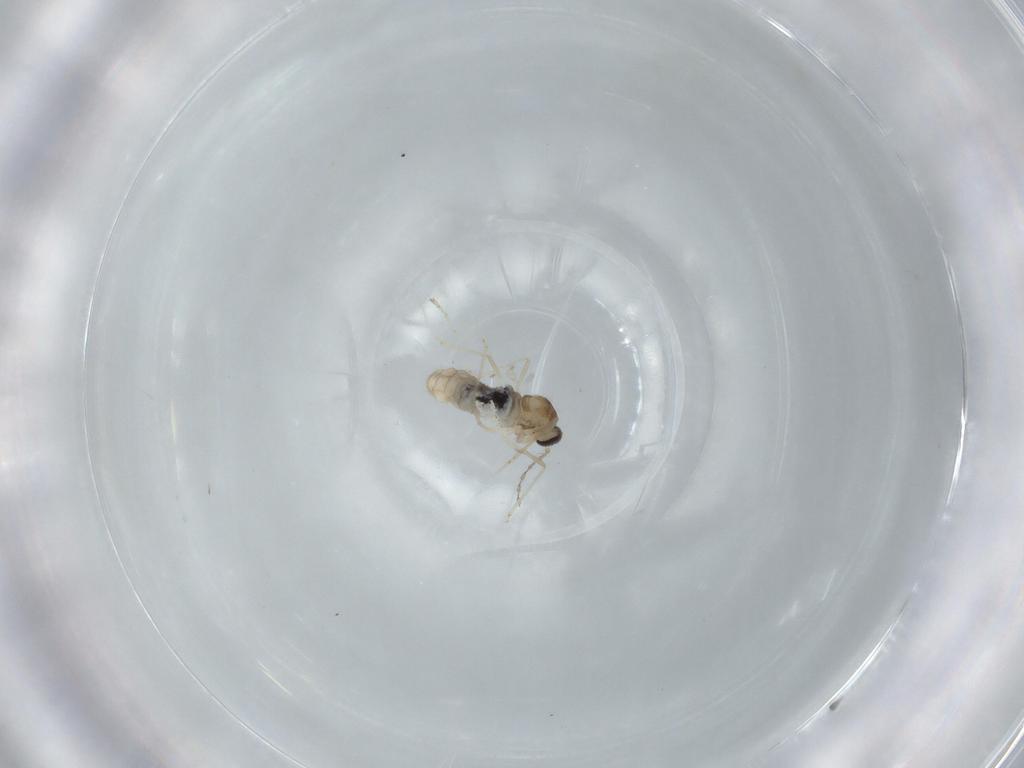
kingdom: Animalia
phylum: Arthropoda
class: Insecta
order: Diptera
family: Cecidomyiidae
